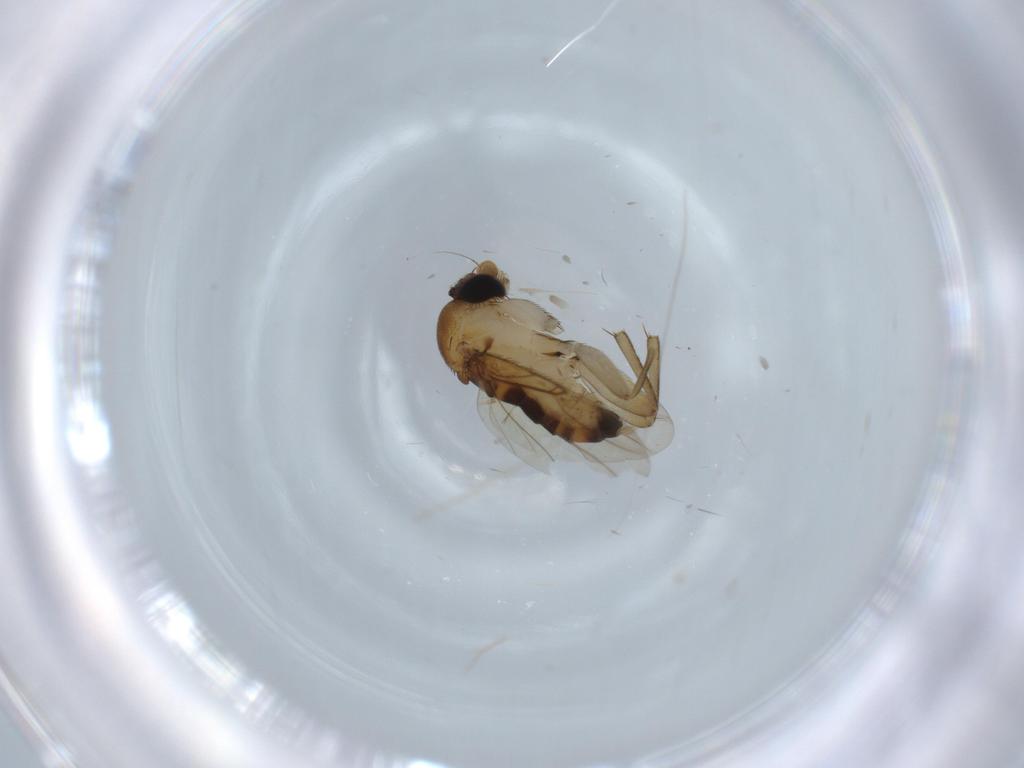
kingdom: Animalia
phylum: Arthropoda
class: Insecta
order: Diptera
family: Phoridae
